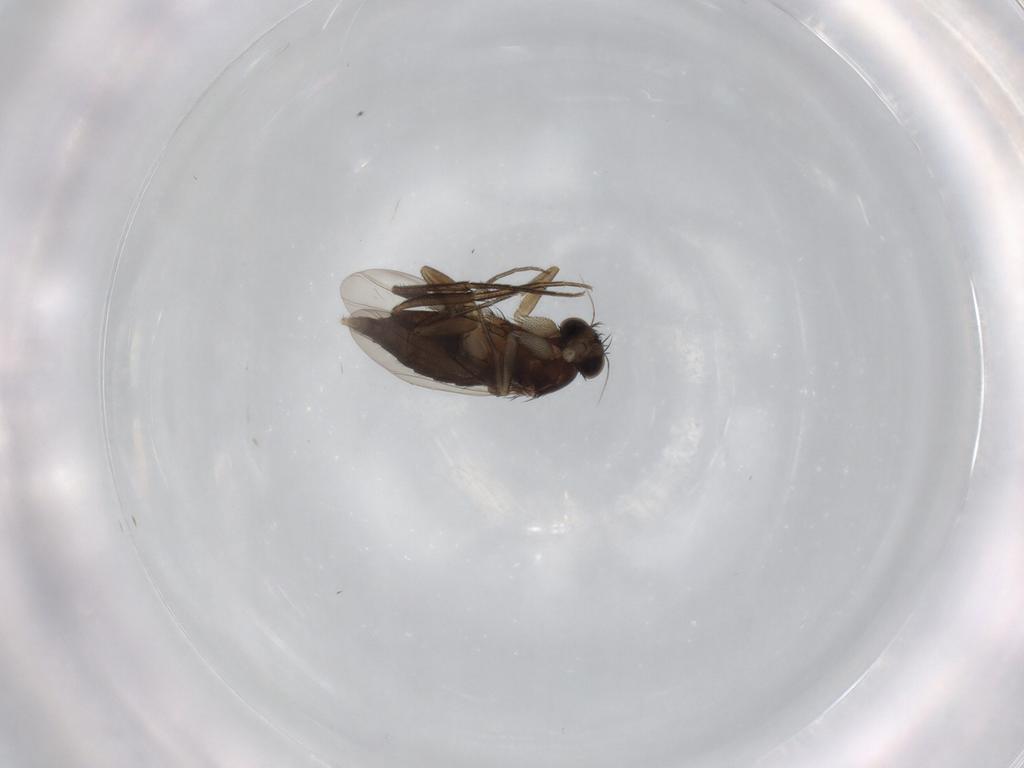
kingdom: Animalia
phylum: Arthropoda
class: Insecta
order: Diptera
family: Phoridae
